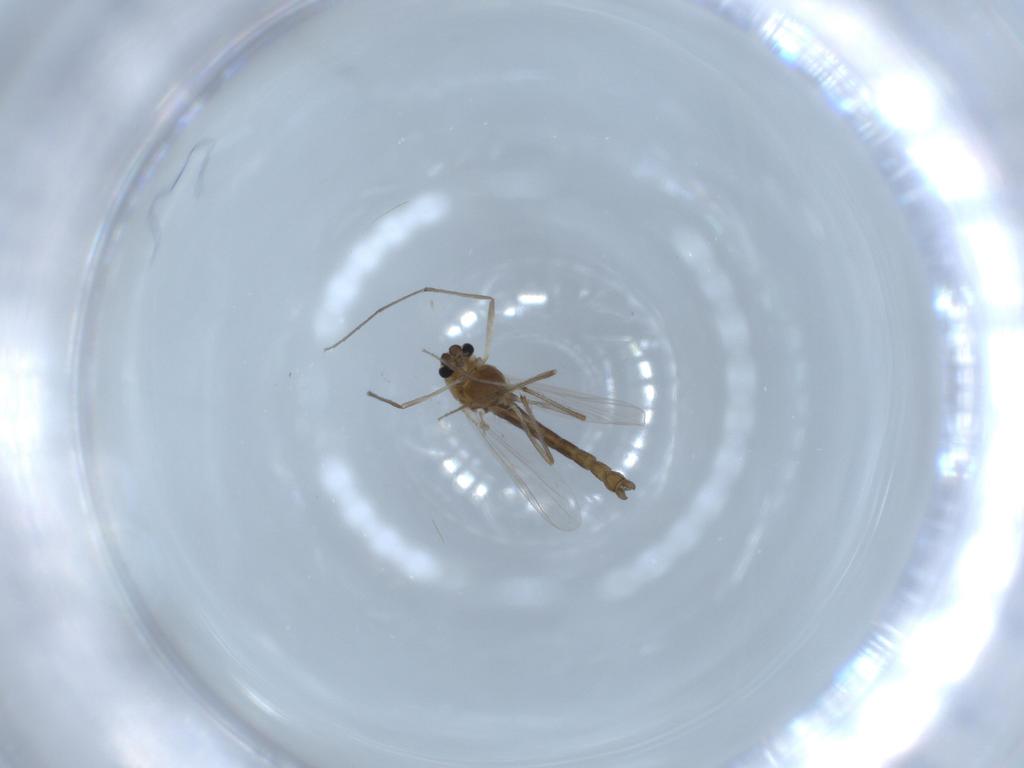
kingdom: Animalia
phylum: Arthropoda
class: Insecta
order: Diptera
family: Chironomidae
